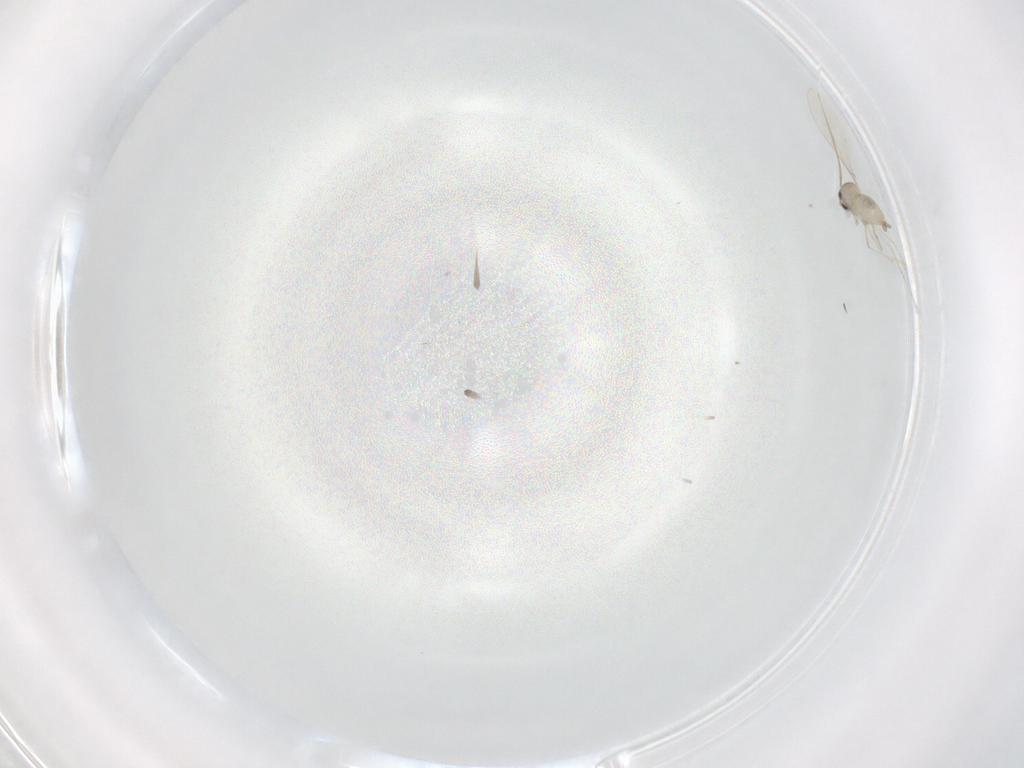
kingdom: Animalia
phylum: Arthropoda
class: Insecta
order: Diptera
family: Cecidomyiidae
